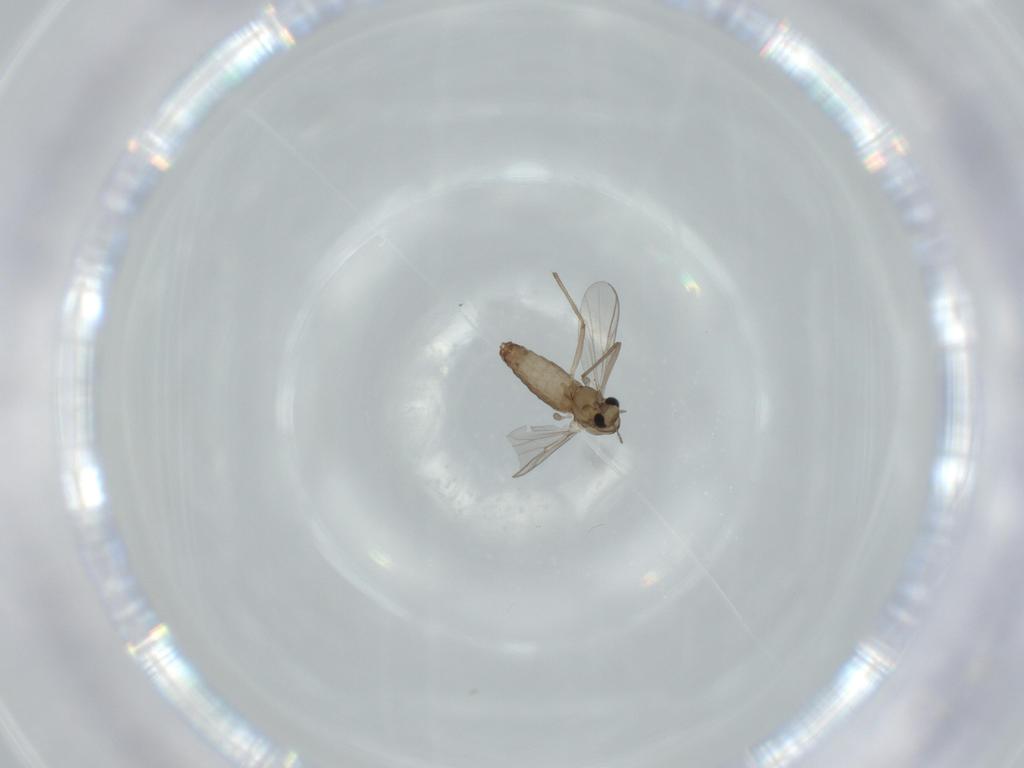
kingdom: Animalia
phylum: Arthropoda
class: Insecta
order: Diptera
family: Chironomidae
